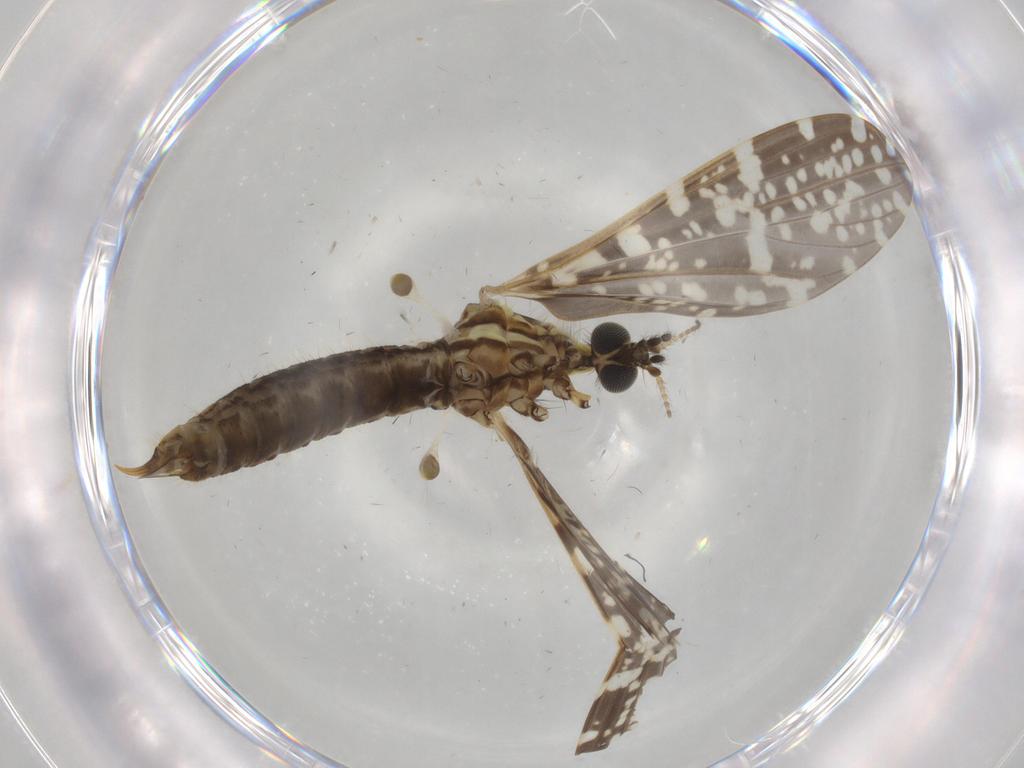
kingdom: Animalia
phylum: Arthropoda
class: Insecta
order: Diptera
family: Limoniidae
